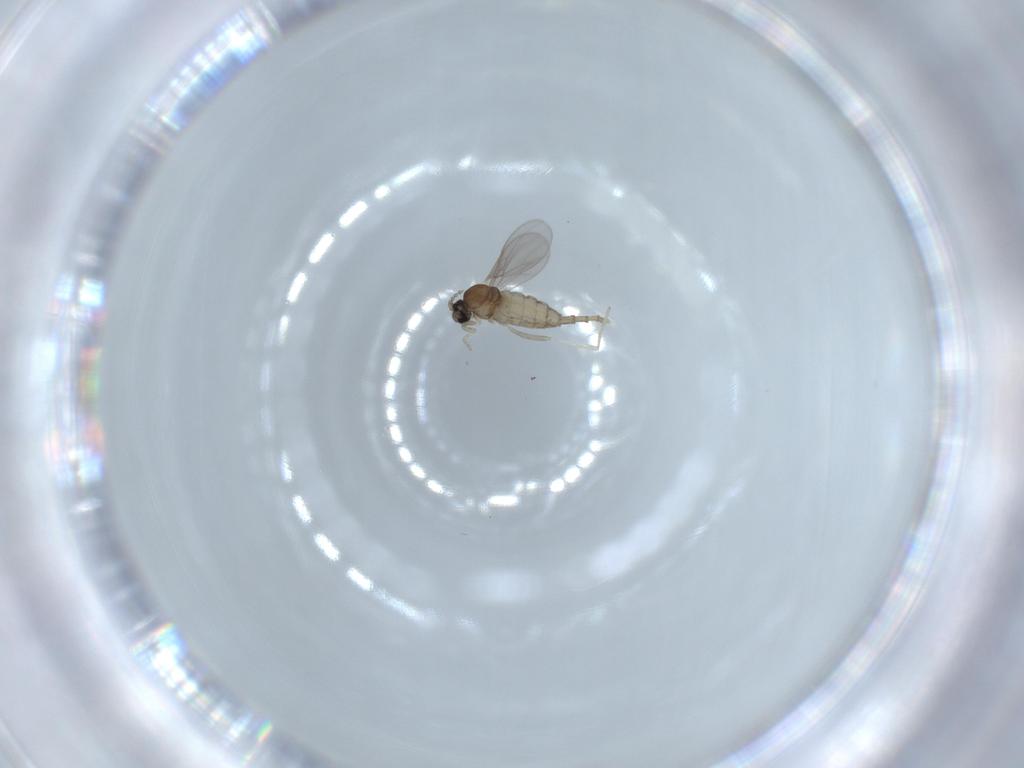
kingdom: Animalia
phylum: Arthropoda
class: Insecta
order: Diptera
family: Cecidomyiidae
